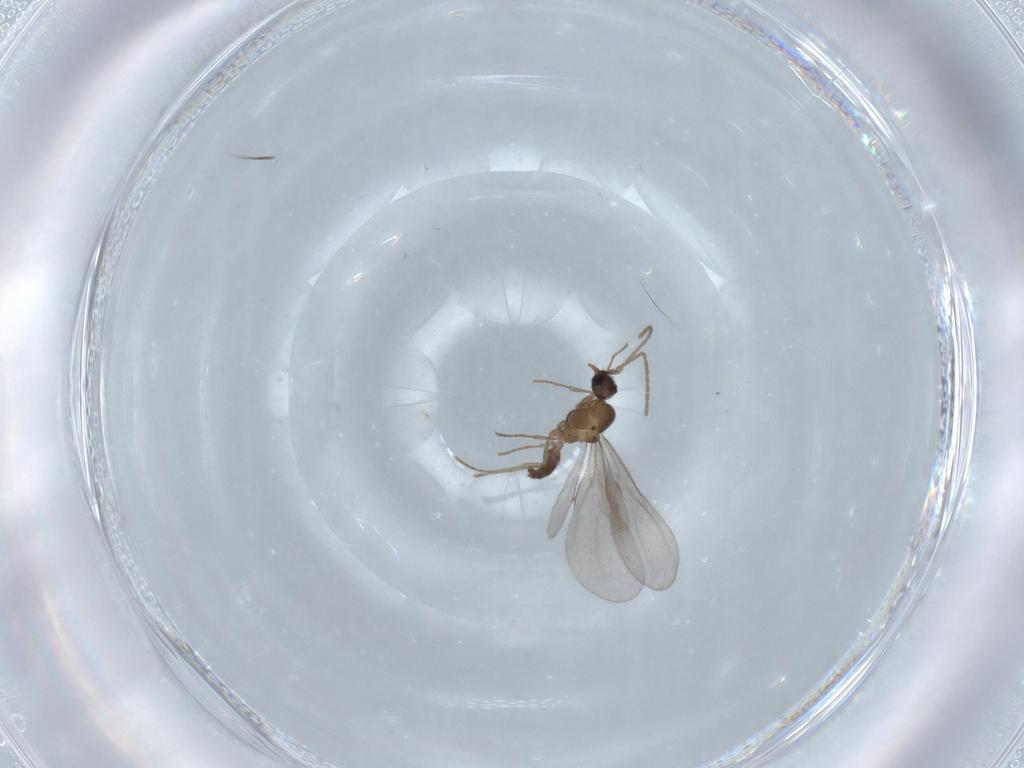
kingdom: Animalia
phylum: Arthropoda
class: Insecta
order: Hymenoptera
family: Formicidae
